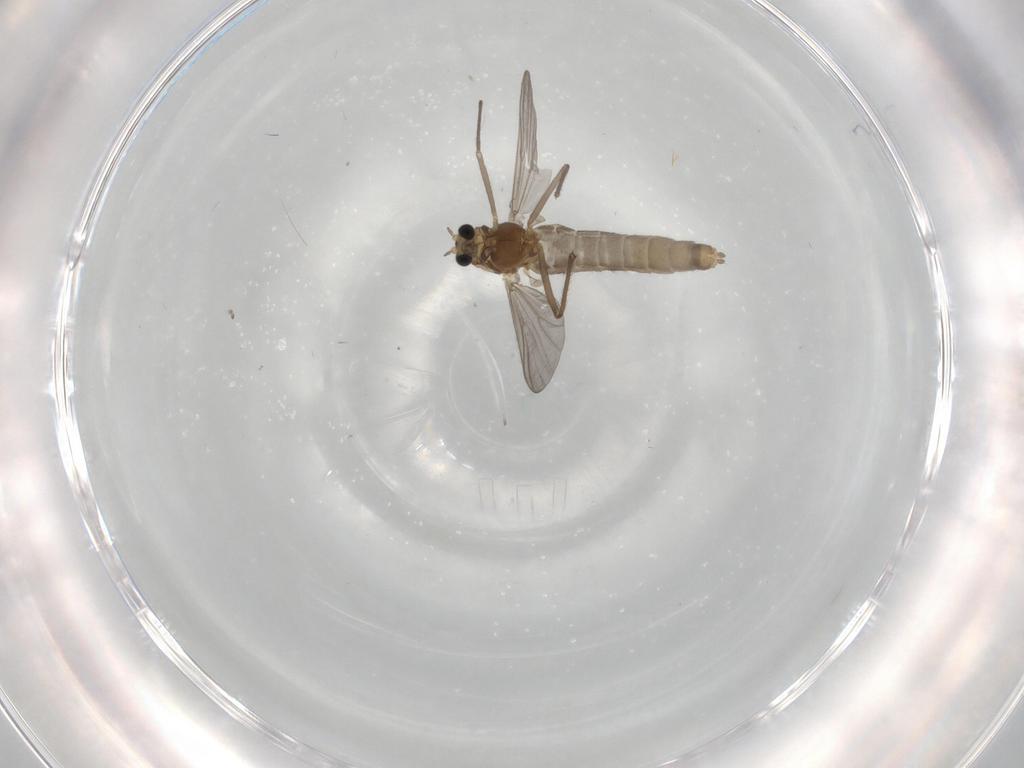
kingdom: Animalia
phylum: Arthropoda
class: Insecta
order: Diptera
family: Chironomidae
